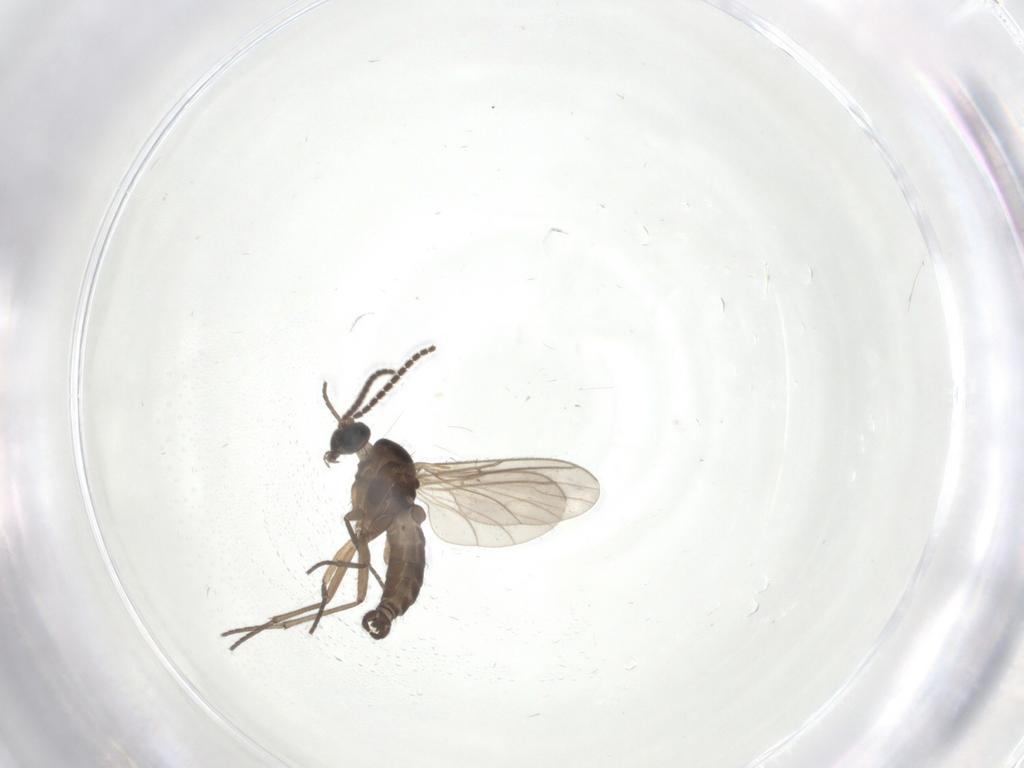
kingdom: Animalia
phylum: Arthropoda
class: Insecta
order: Diptera
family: Sciaridae
